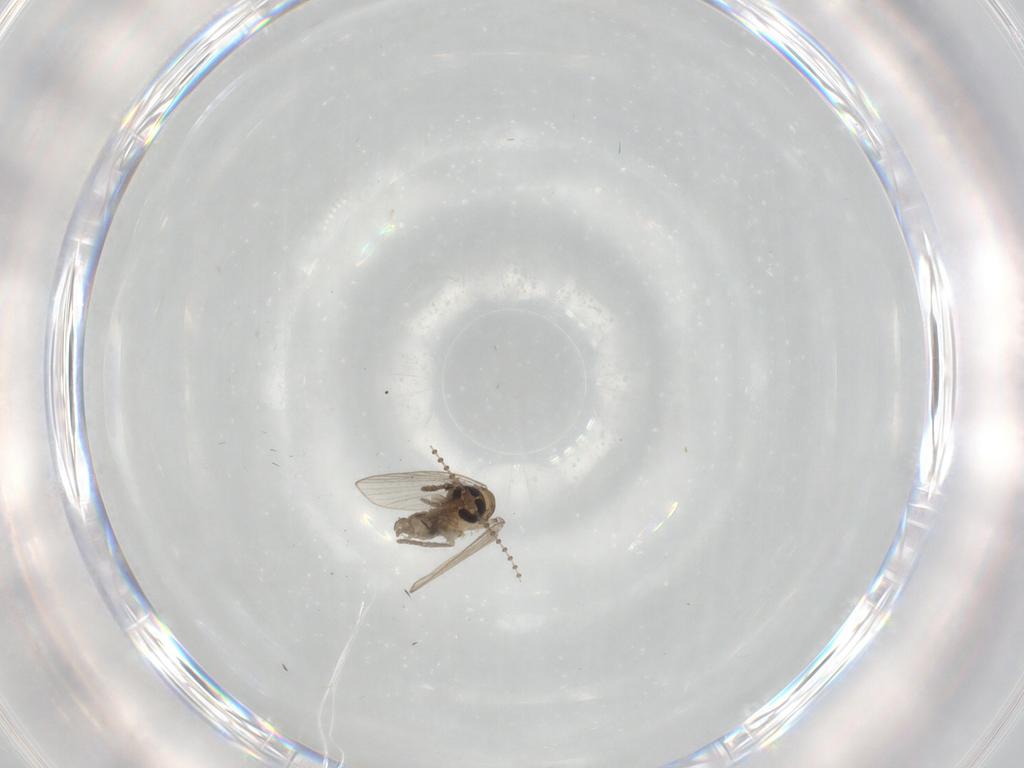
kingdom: Animalia
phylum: Arthropoda
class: Insecta
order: Diptera
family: Psychodidae
